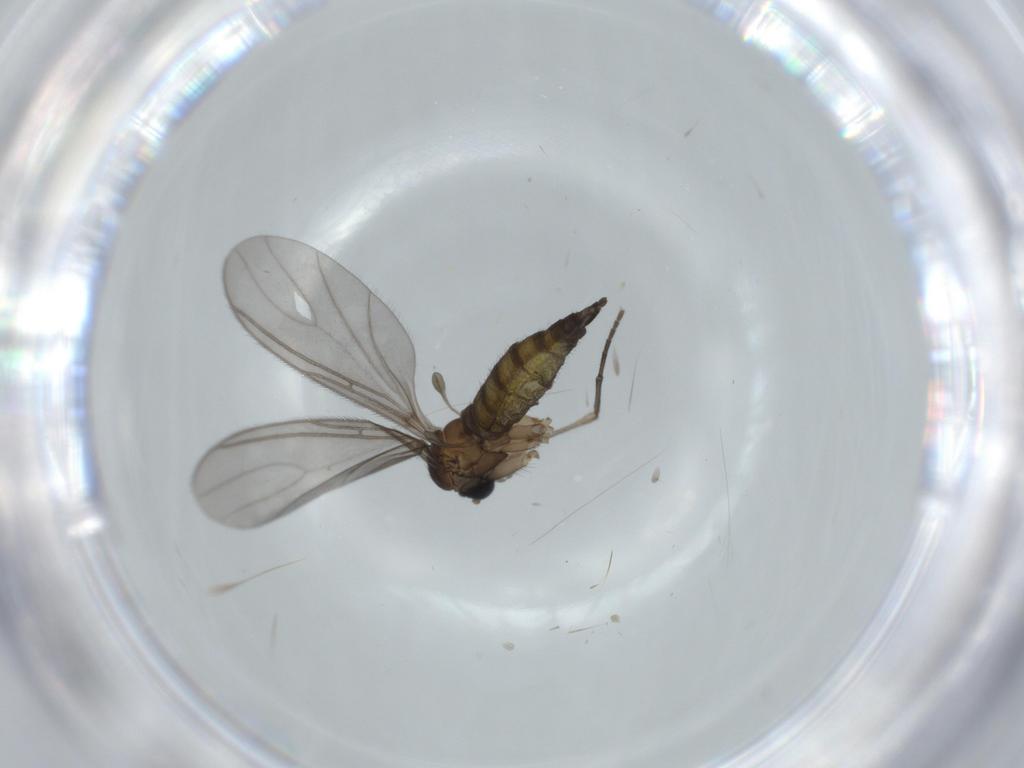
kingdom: Animalia
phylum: Arthropoda
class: Insecta
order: Diptera
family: Sciaridae
